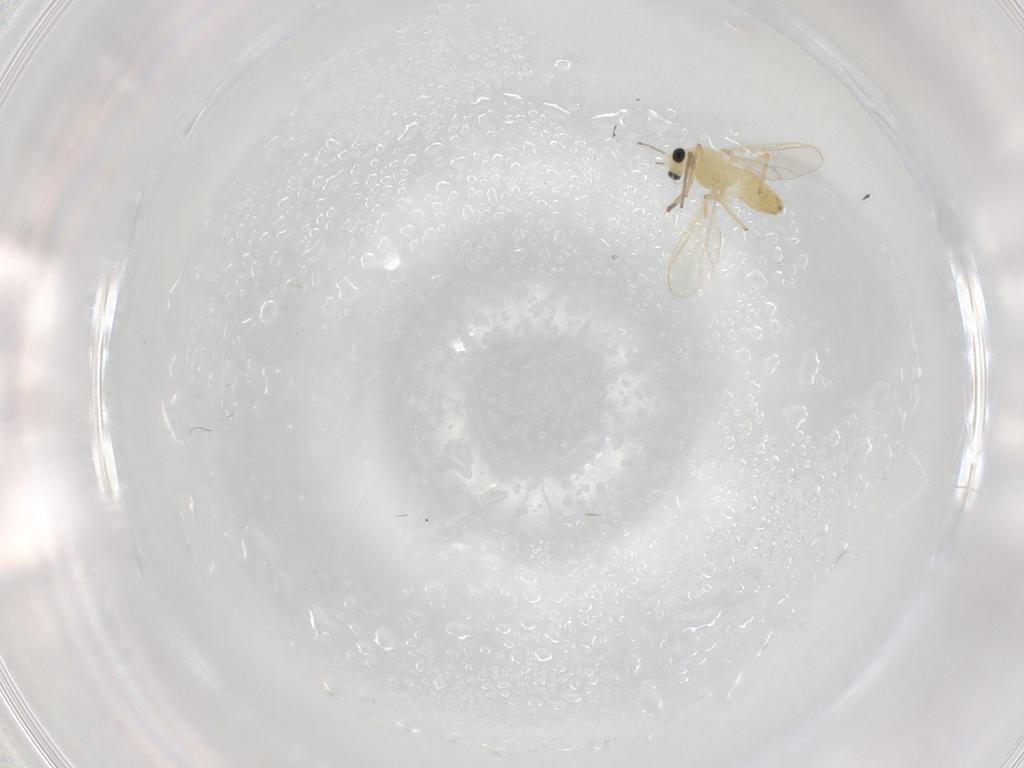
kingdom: Animalia
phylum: Arthropoda
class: Insecta
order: Diptera
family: Chironomidae
